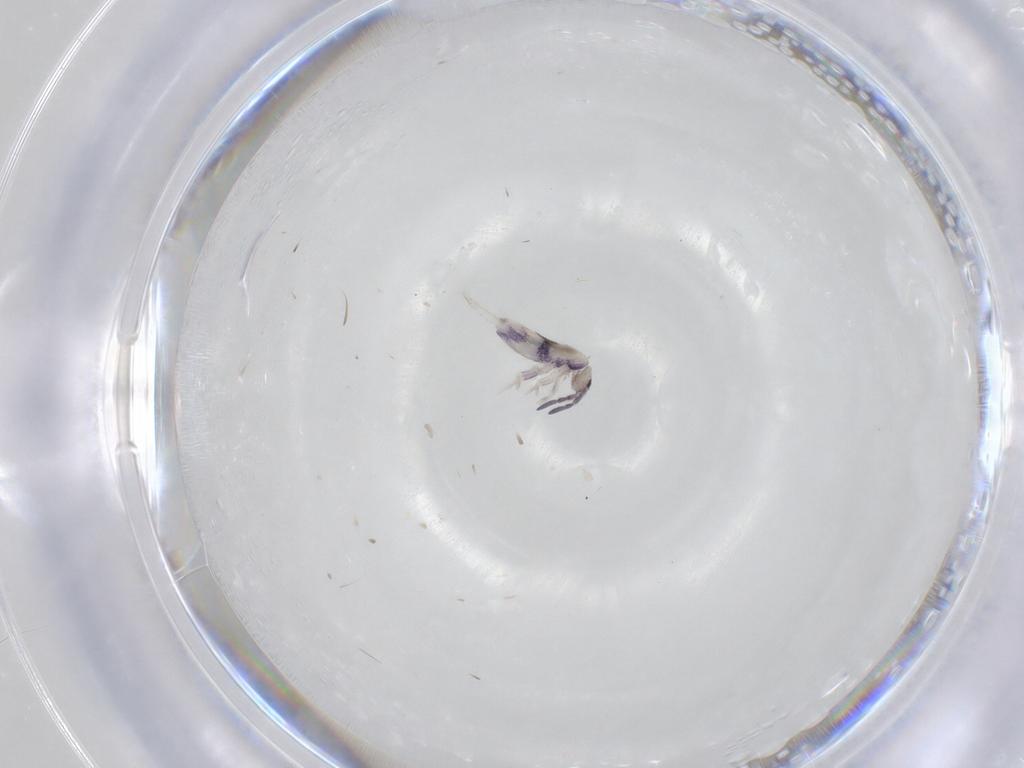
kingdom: Animalia
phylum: Arthropoda
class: Collembola
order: Entomobryomorpha
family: Entomobryidae
